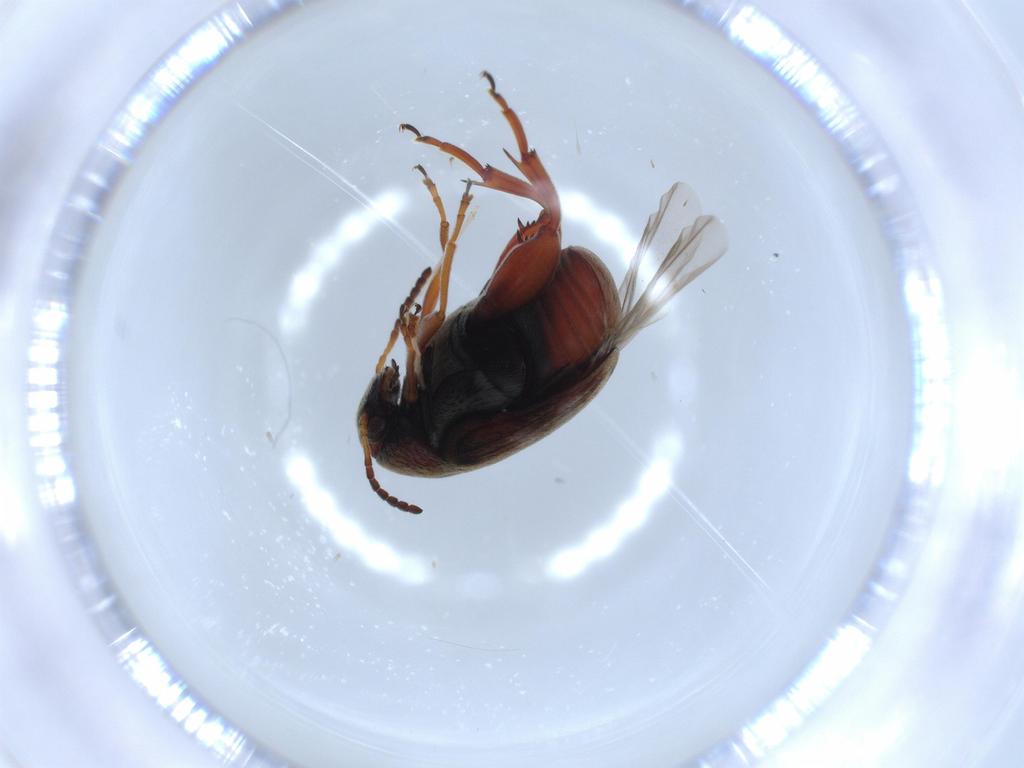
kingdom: Animalia
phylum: Arthropoda
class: Insecta
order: Coleoptera
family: Chrysomelidae
